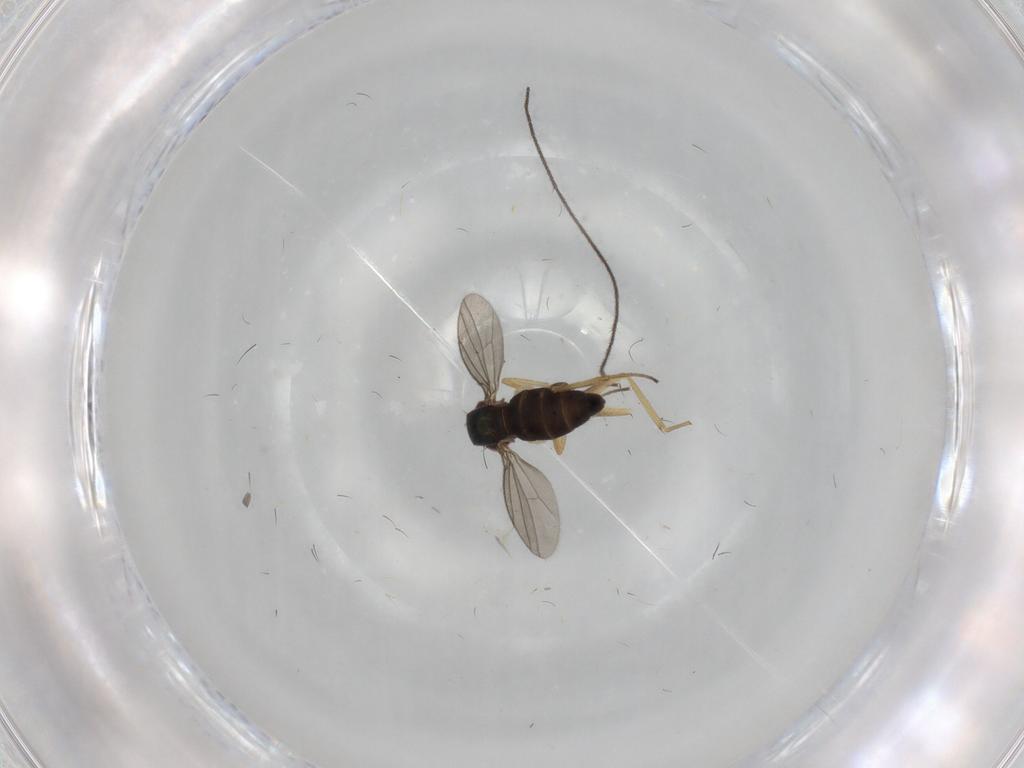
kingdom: Animalia
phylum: Arthropoda
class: Insecta
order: Diptera
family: Dolichopodidae
